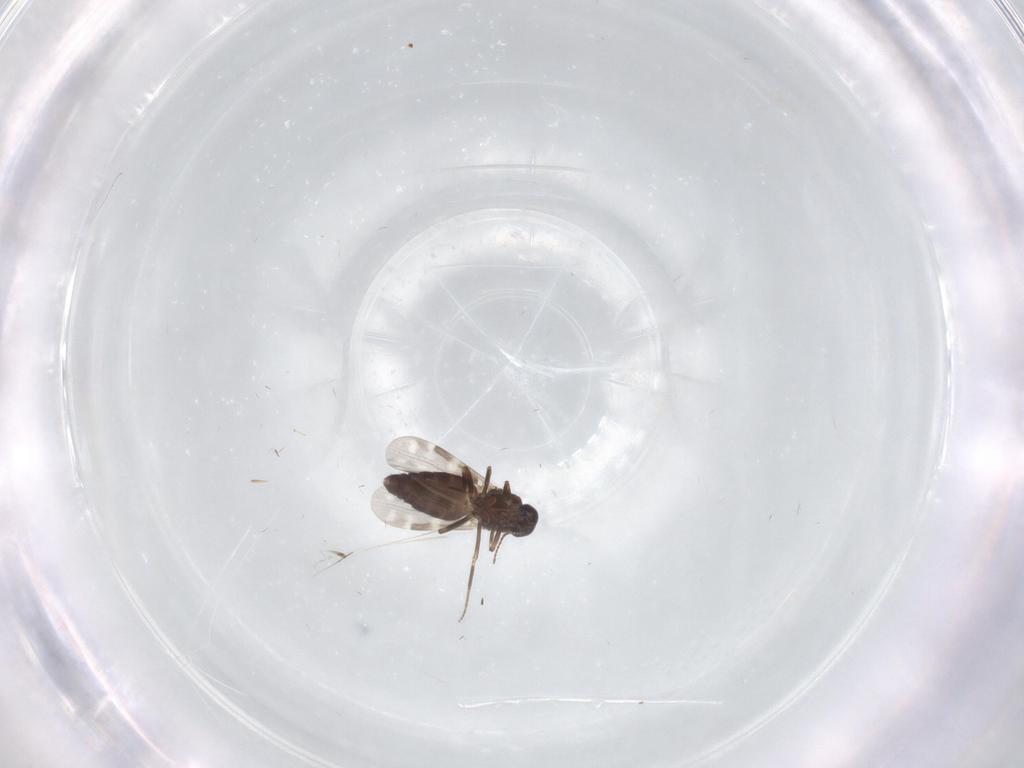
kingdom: Animalia
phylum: Arthropoda
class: Insecta
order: Diptera
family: Ceratopogonidae
